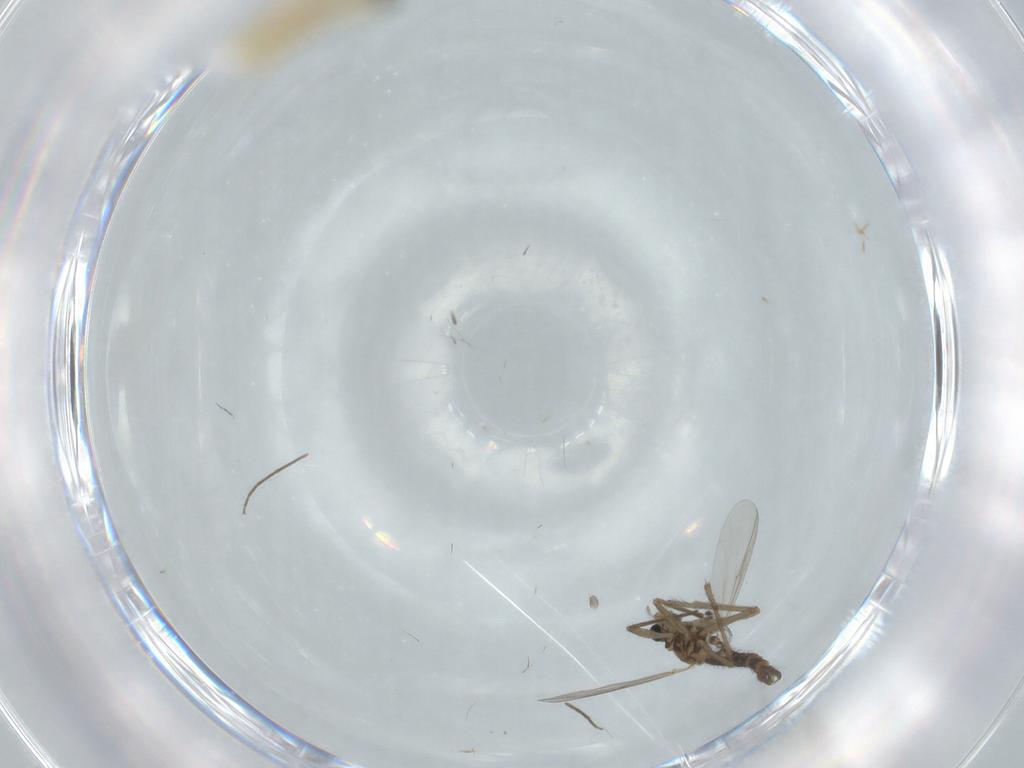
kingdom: Animalia
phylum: Arthropoda
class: Insecta
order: Diptera
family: Chironomidae
